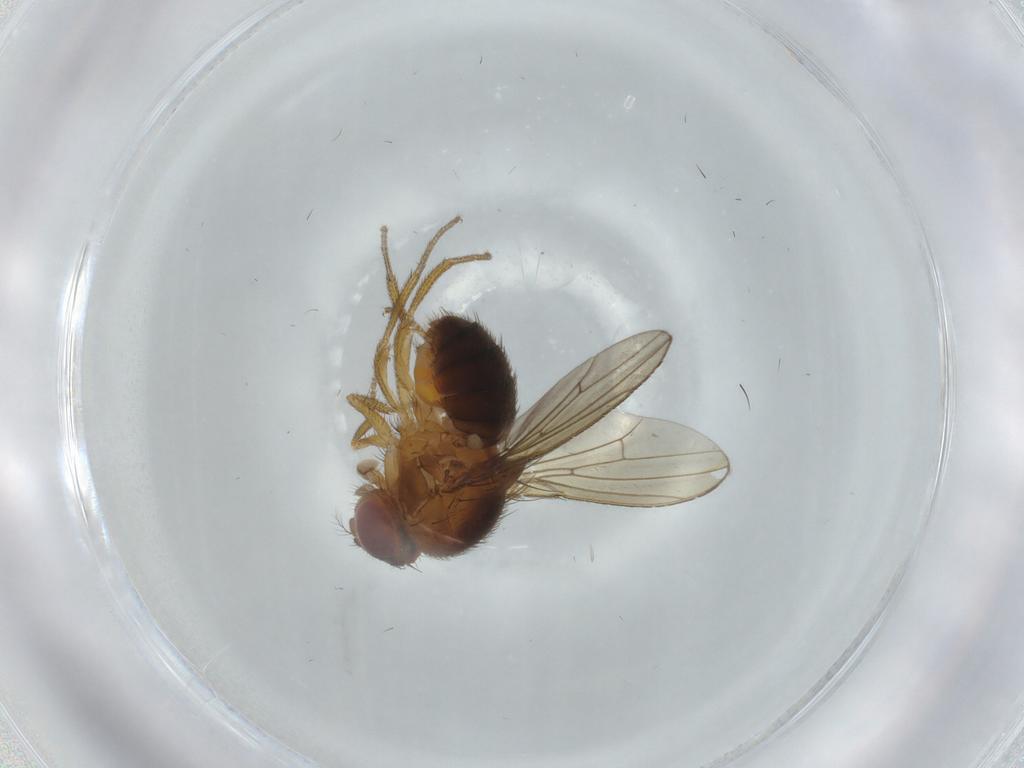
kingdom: Animalia
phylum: Arthropoda
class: Insecta
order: Diptera
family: Drosophilidae
